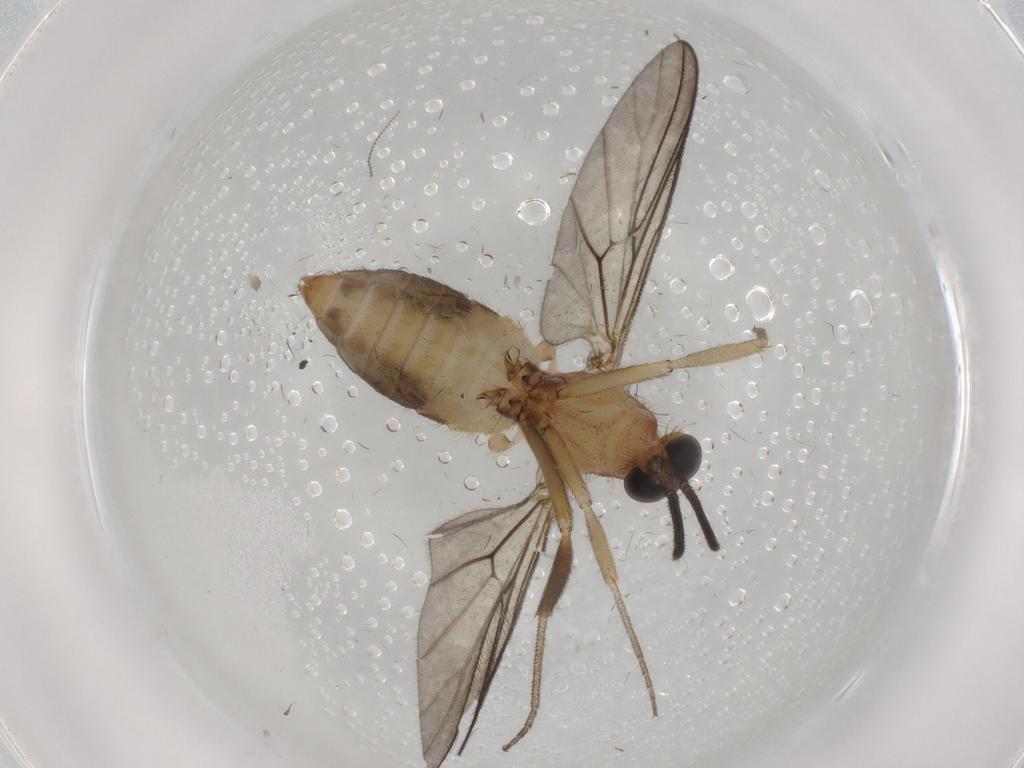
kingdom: Animalia
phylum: Arthropoda
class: Insecta
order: Diptera
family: Anisopodidae
